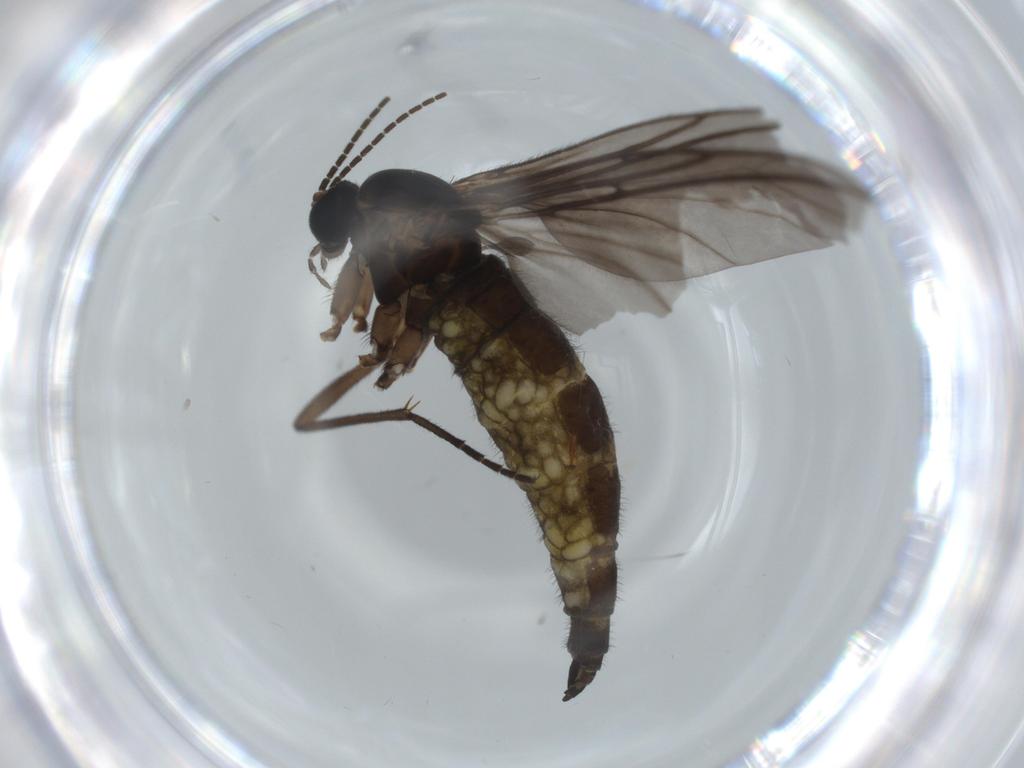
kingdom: Animalia
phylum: Arthropoda
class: Insecta
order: Diptera
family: Sciaridae
